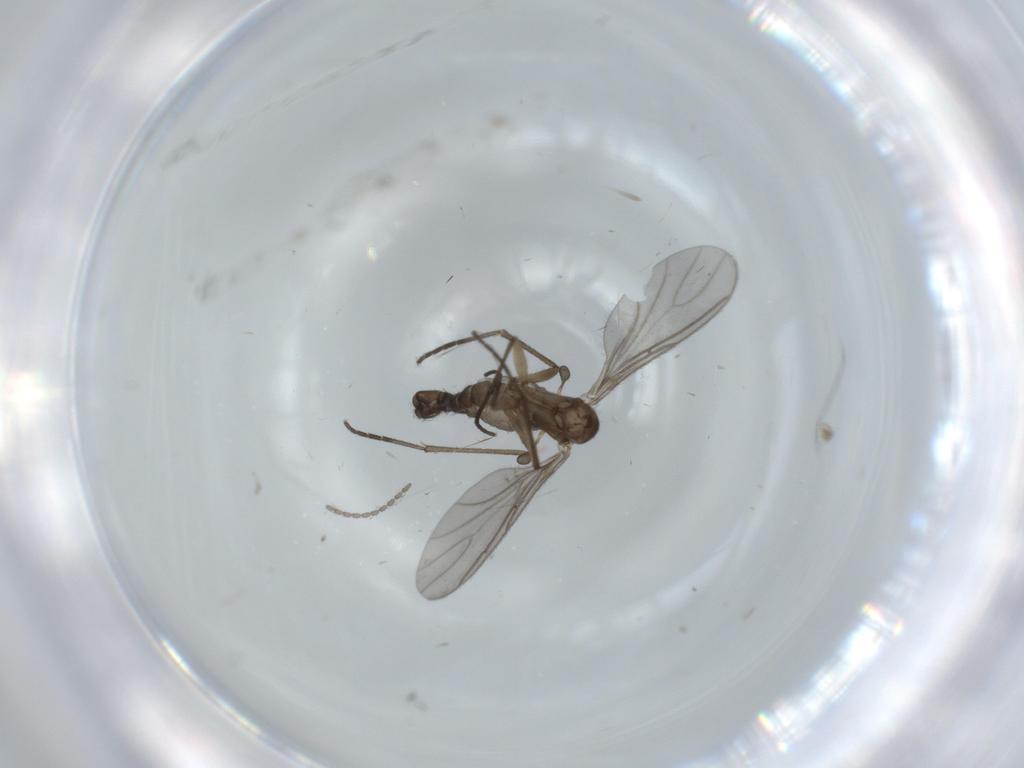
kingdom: Animalia
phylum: Arthropoda
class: Insecta
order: Diptera
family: Sciaridae
